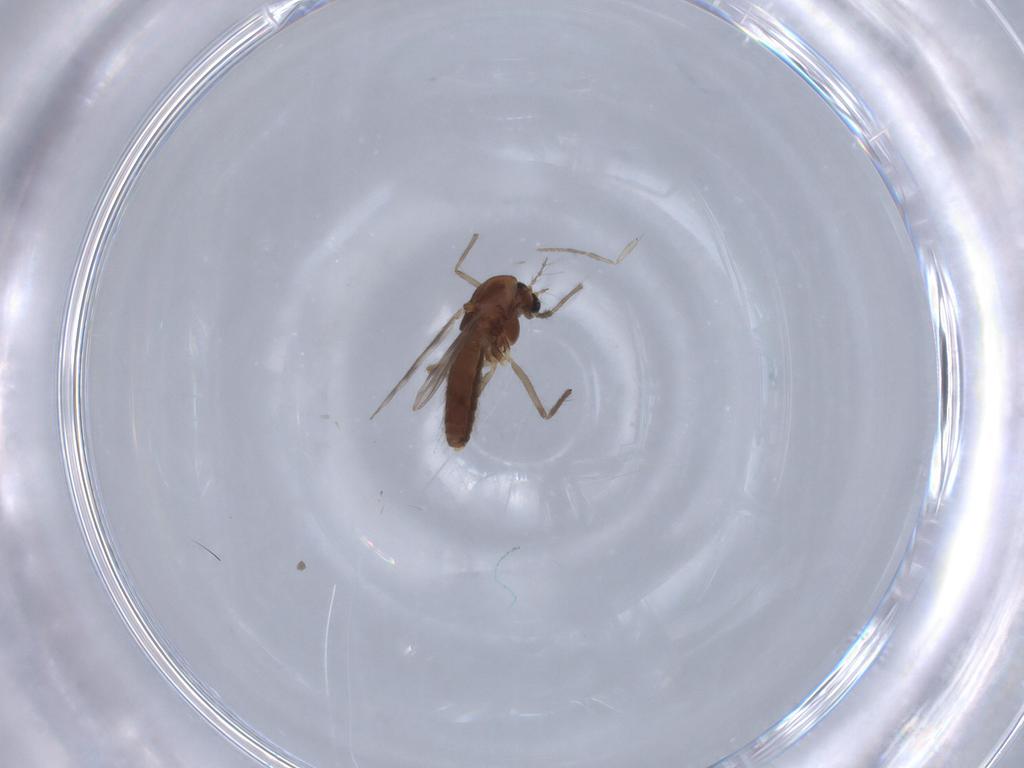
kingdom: Animalia
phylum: Arthropoda
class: Insecta
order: Diptera
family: Chironomidae
